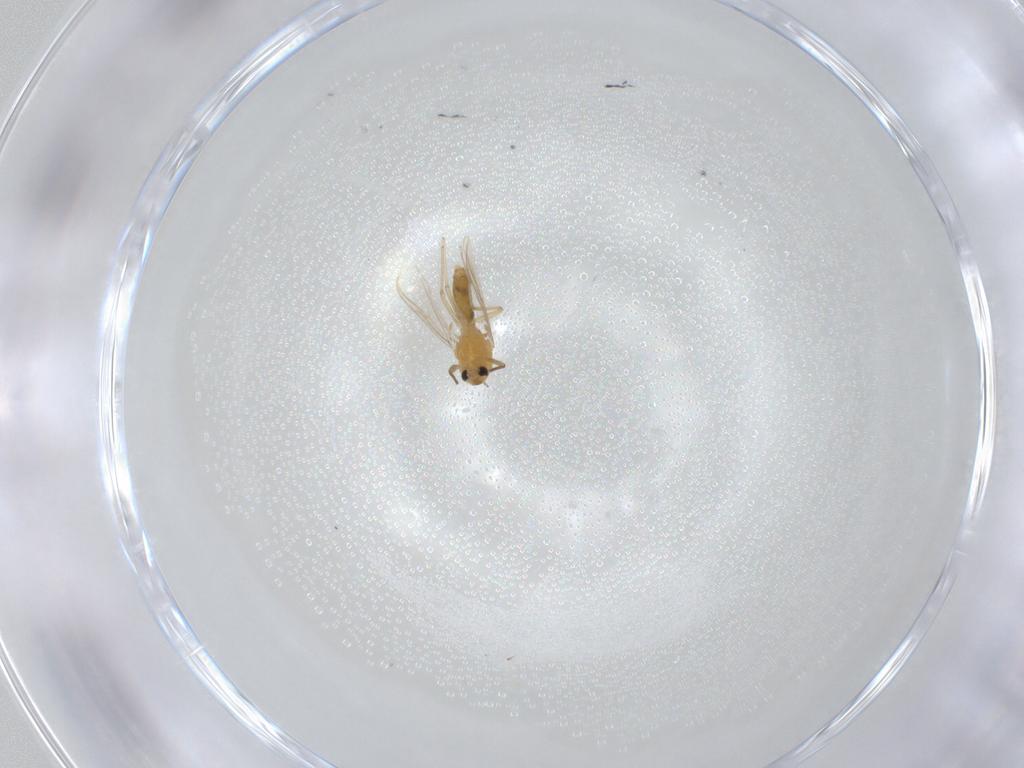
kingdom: Animalia
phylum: Arthropoda
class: Insecta
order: Diptera
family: Chironomidae
